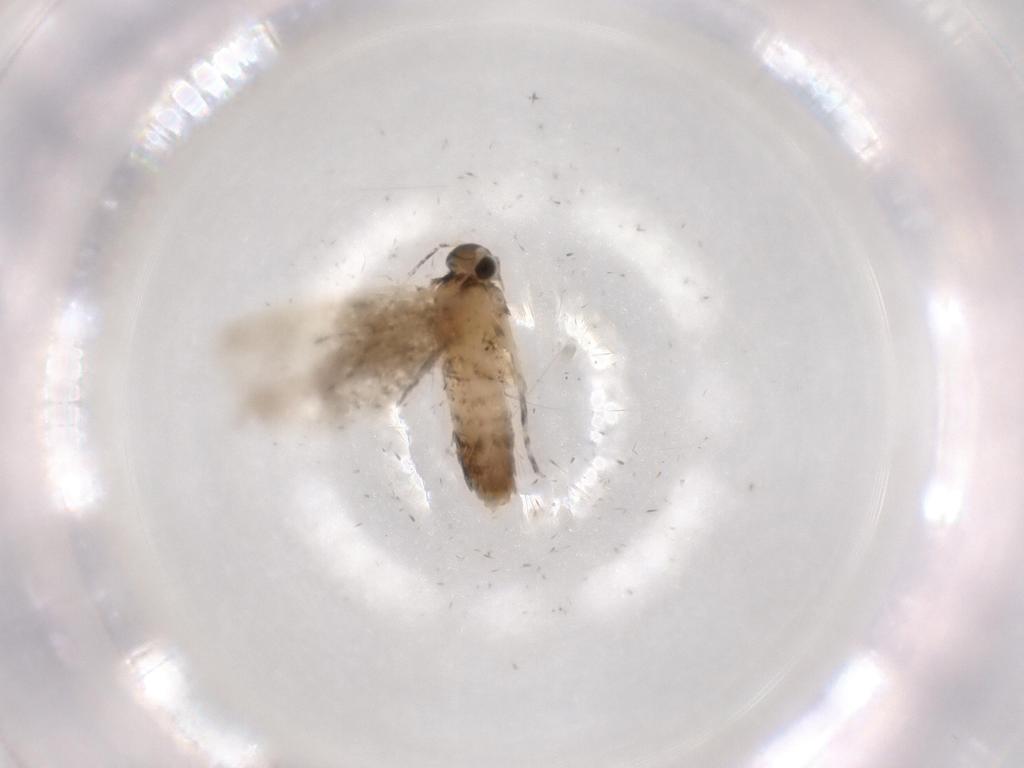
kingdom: Animalia
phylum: Arthropoda
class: Insecta
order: Lepidoptera
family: Tineidae
